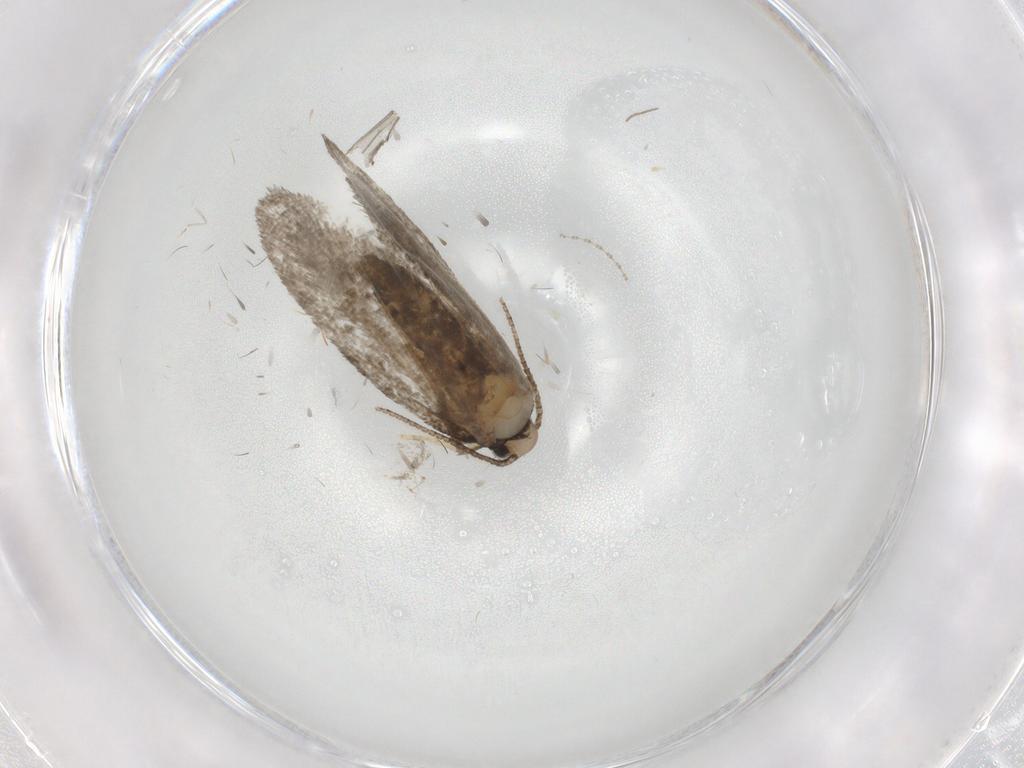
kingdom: Animalia
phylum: Arthropoda
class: Insecta
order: Lepidoptera
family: Psychidae
